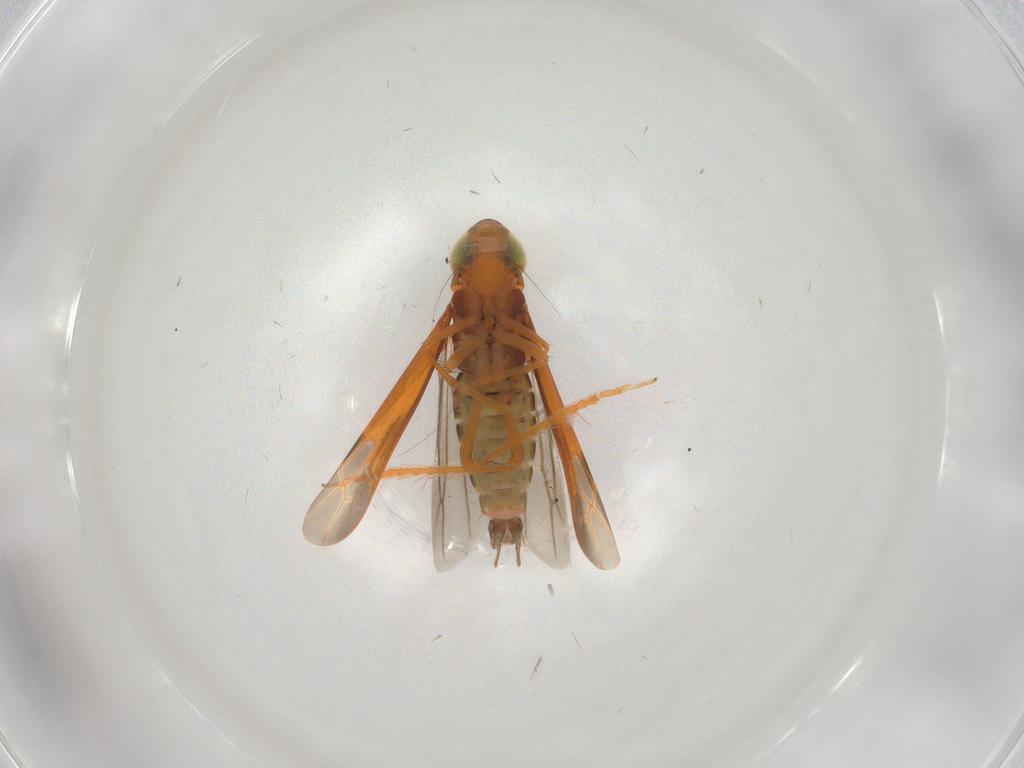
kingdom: Animalia
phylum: Arthropoda
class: Insecta
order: Hemiptera
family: Cicadellidae
